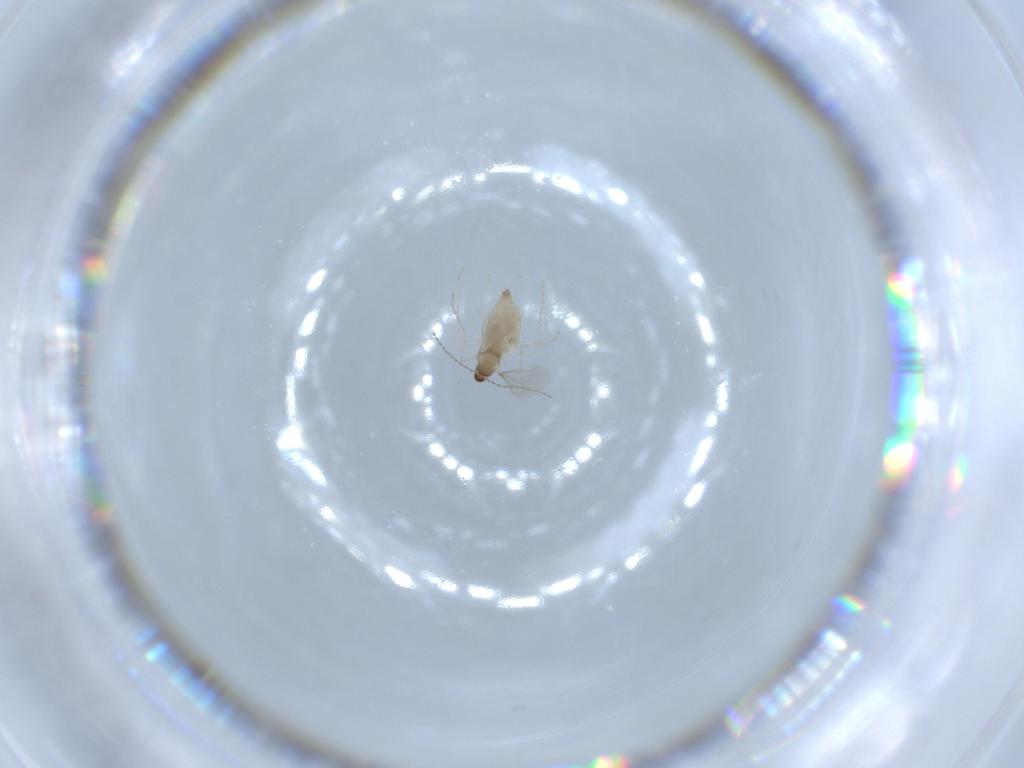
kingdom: Animalia
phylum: Arthropoda
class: Insecta
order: Diptera
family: Cecidomyiidae
